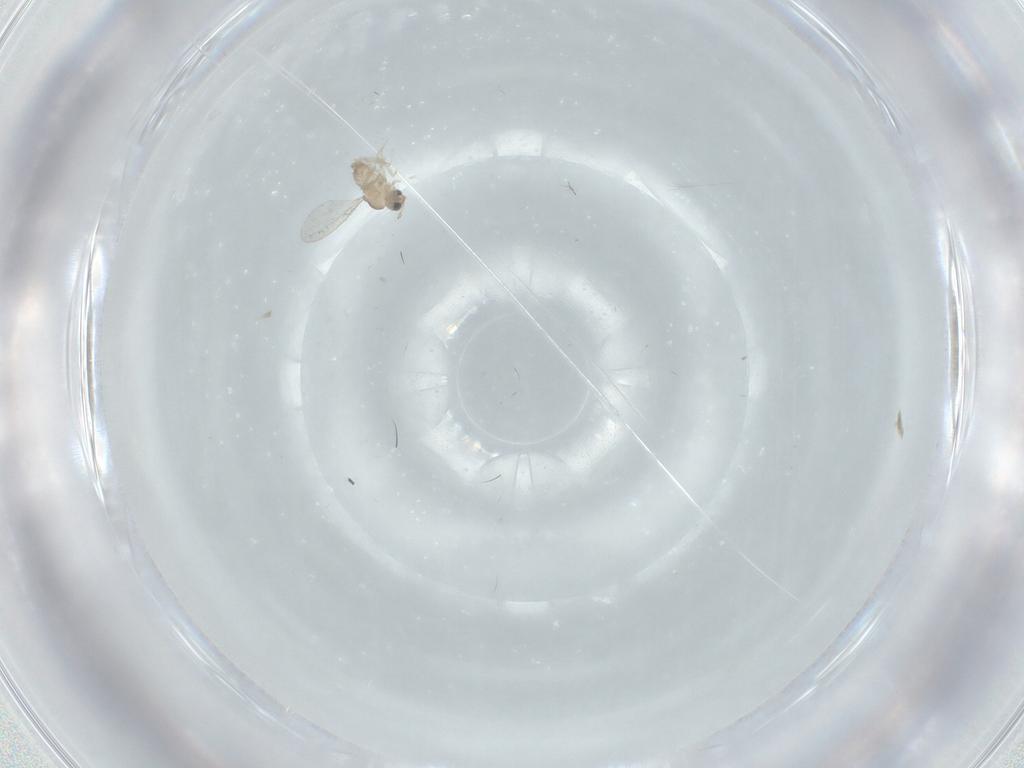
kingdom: Animalia
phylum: Arthropoda
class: Insecta
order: Diptera
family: Cecidomyiidae
